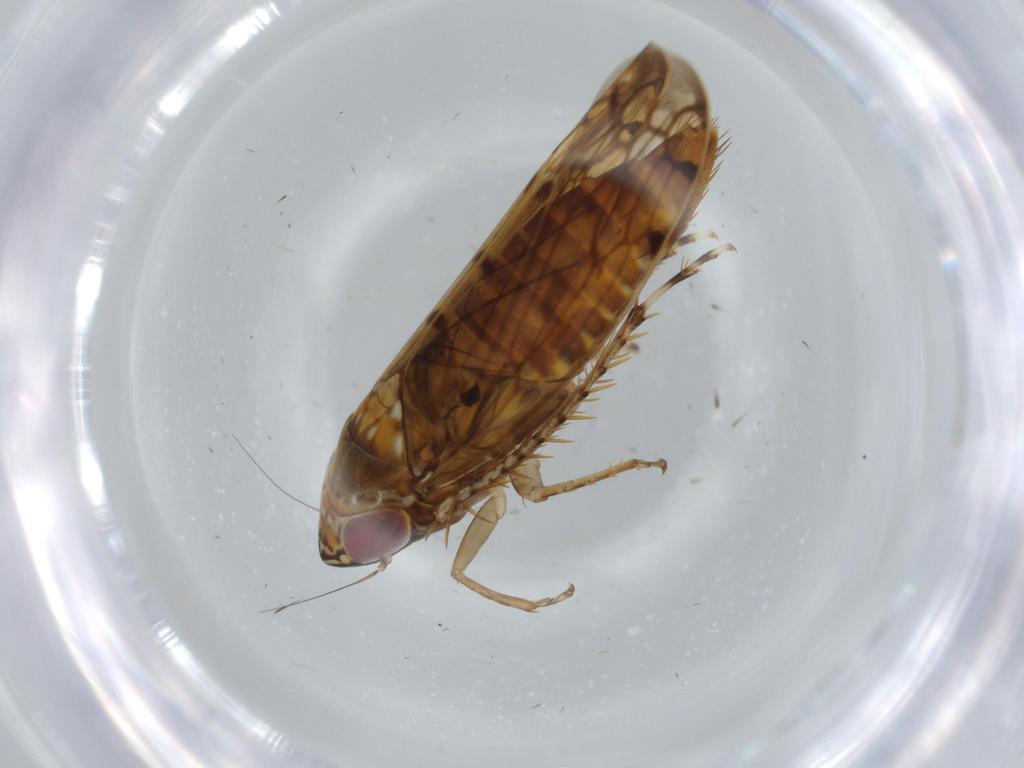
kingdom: Animalia
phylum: Arthropoda
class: Insecta
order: Hemiptera
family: Cicadellidae
